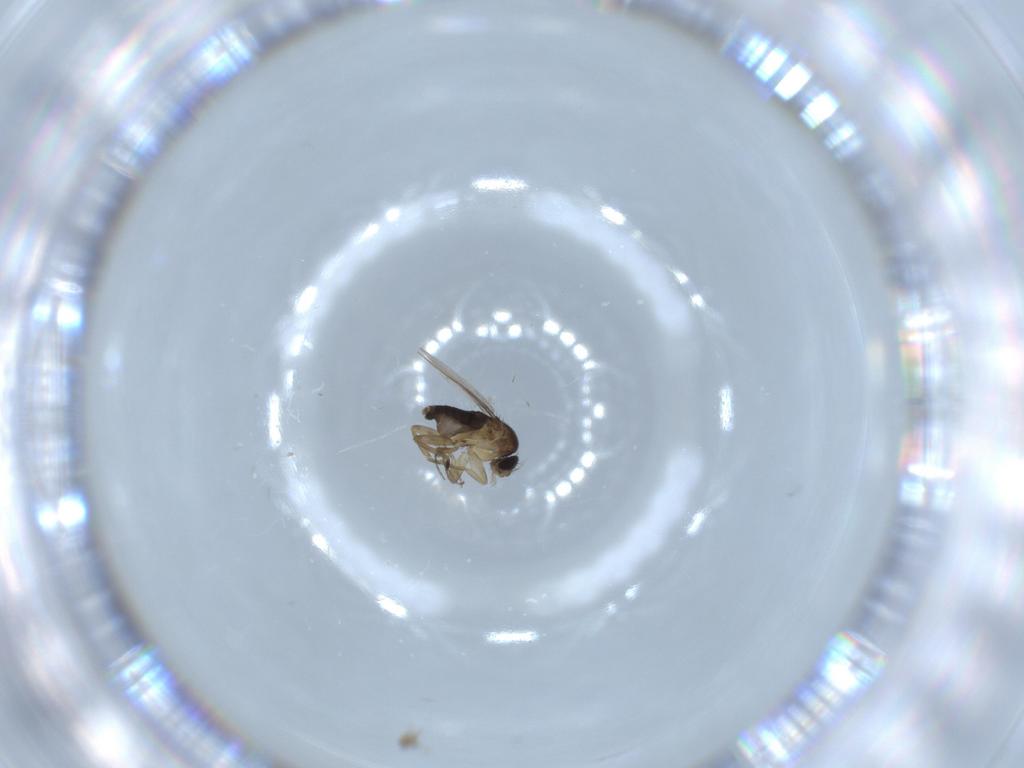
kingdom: Animalia
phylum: Arthropoda
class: Insecta
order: Diptera
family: Phoridae
